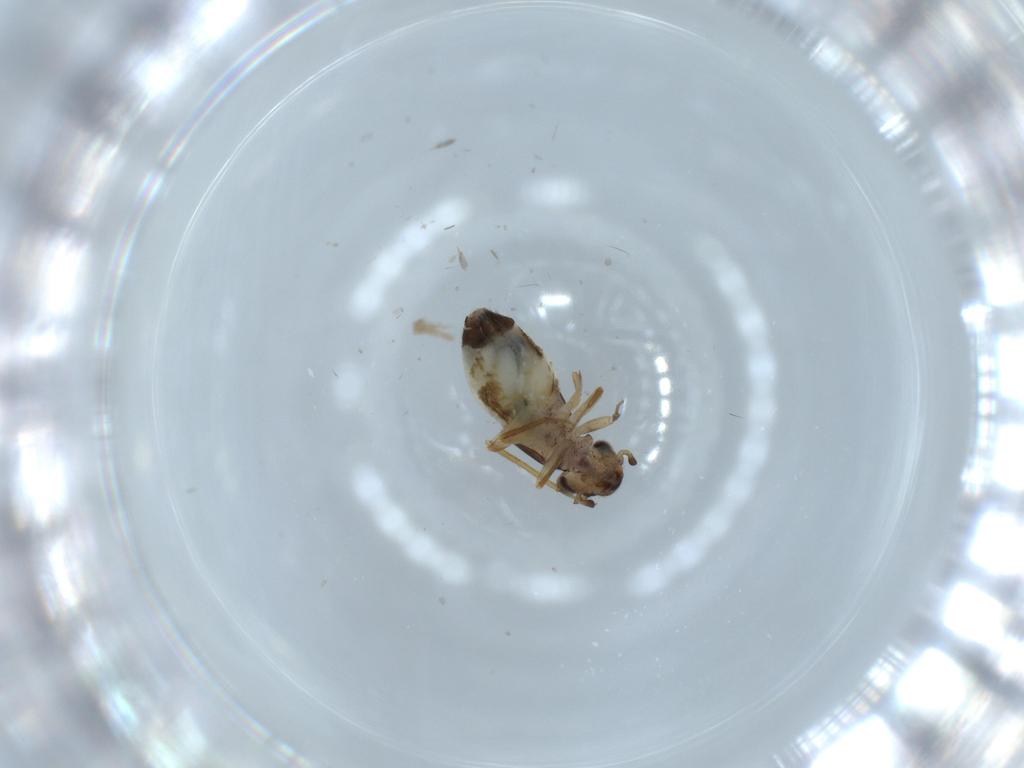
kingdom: Animalia
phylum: Arthropoda
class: Insecta
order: Psocodea
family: Lepidopsocidae
